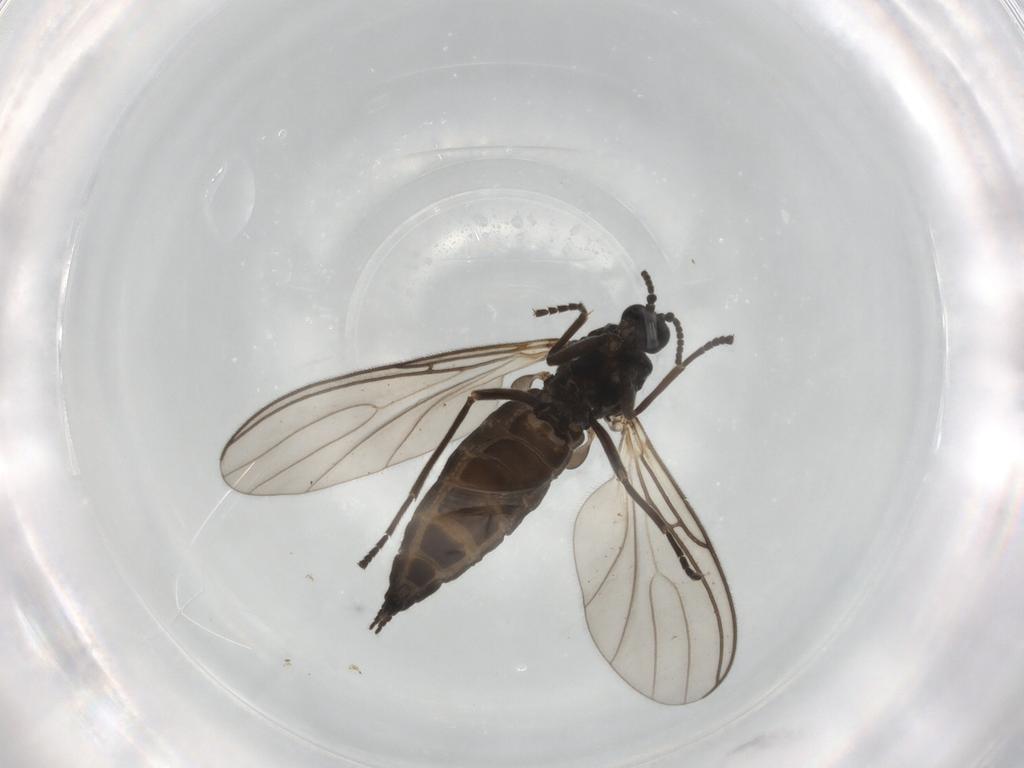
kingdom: Animalia
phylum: Arthropoda
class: Insecta
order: Diptera
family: Sciaridae
